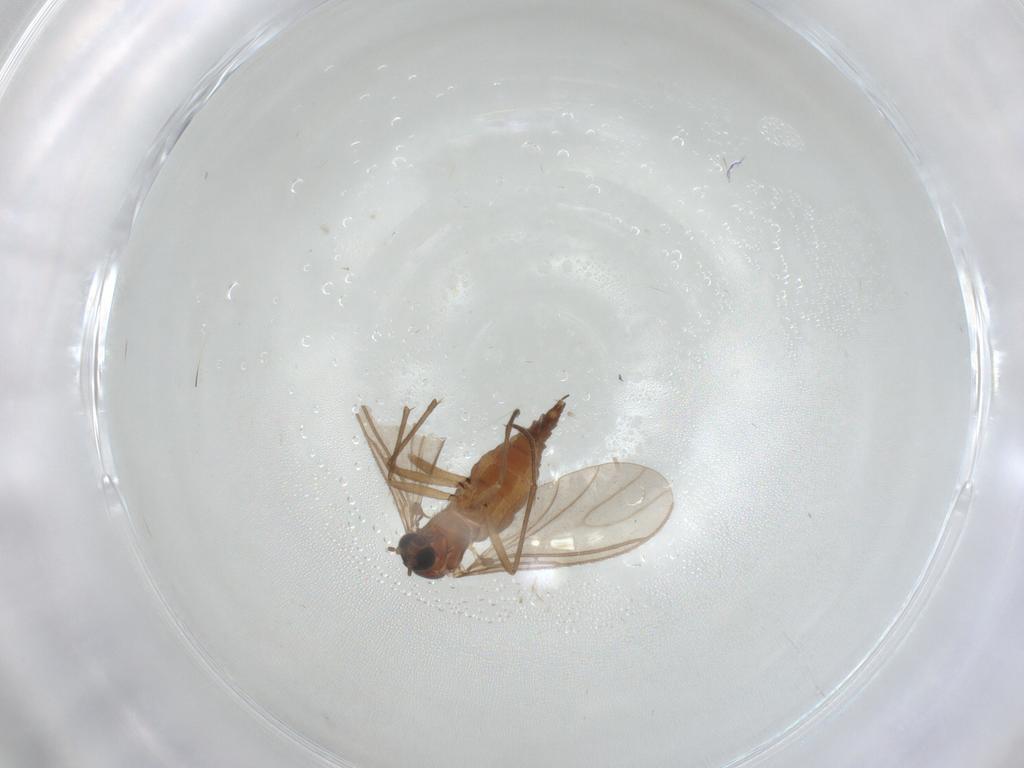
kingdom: Animalia
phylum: Arthropoda
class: Insecta
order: Diptera
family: Sciaridae
